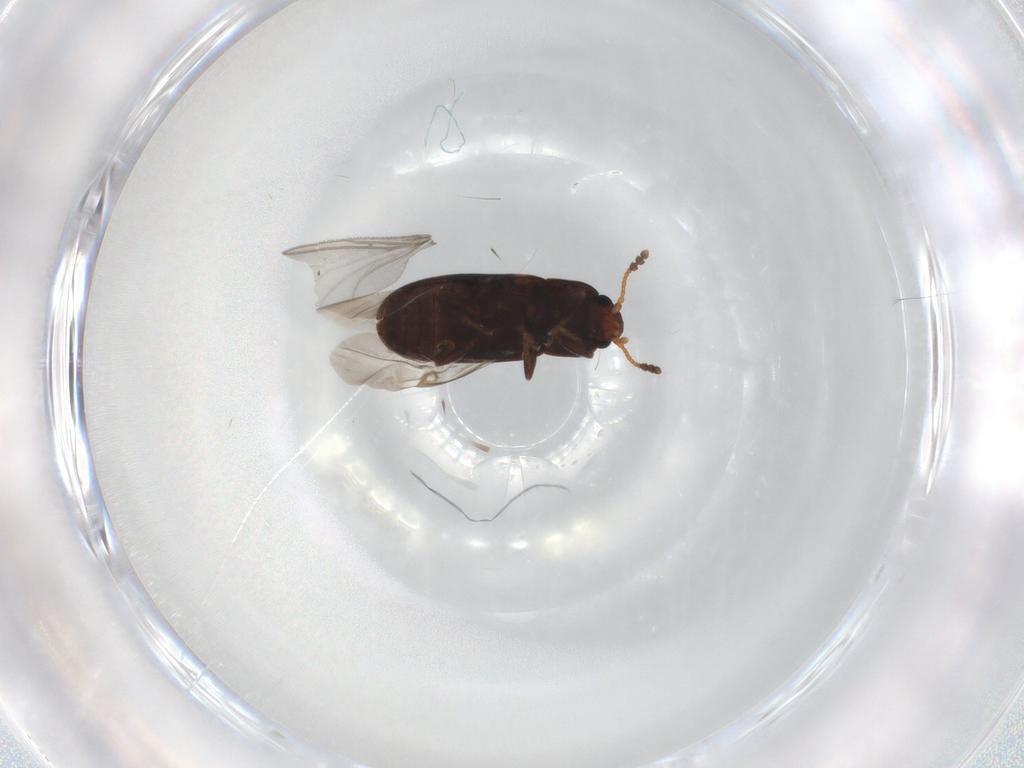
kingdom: Animalia
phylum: Arthropoda
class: Insecta
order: Coleoptera
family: Erotylidae
